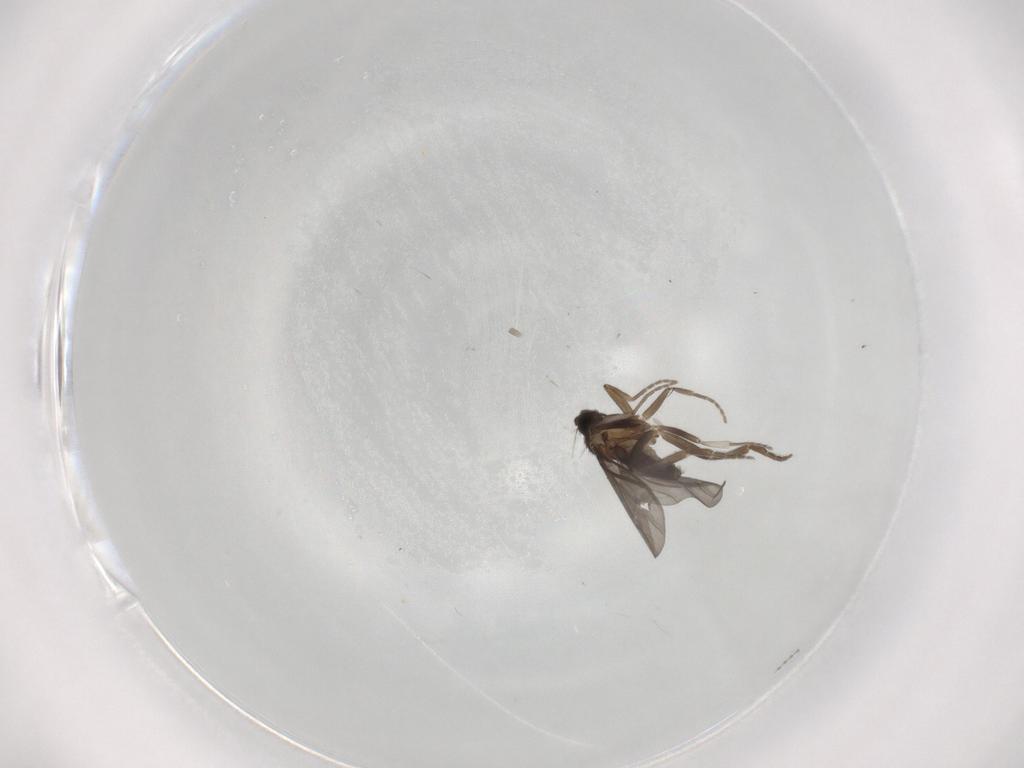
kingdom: Animalia
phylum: Arthropoda
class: Insecta
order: Diptera
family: Phoridae
